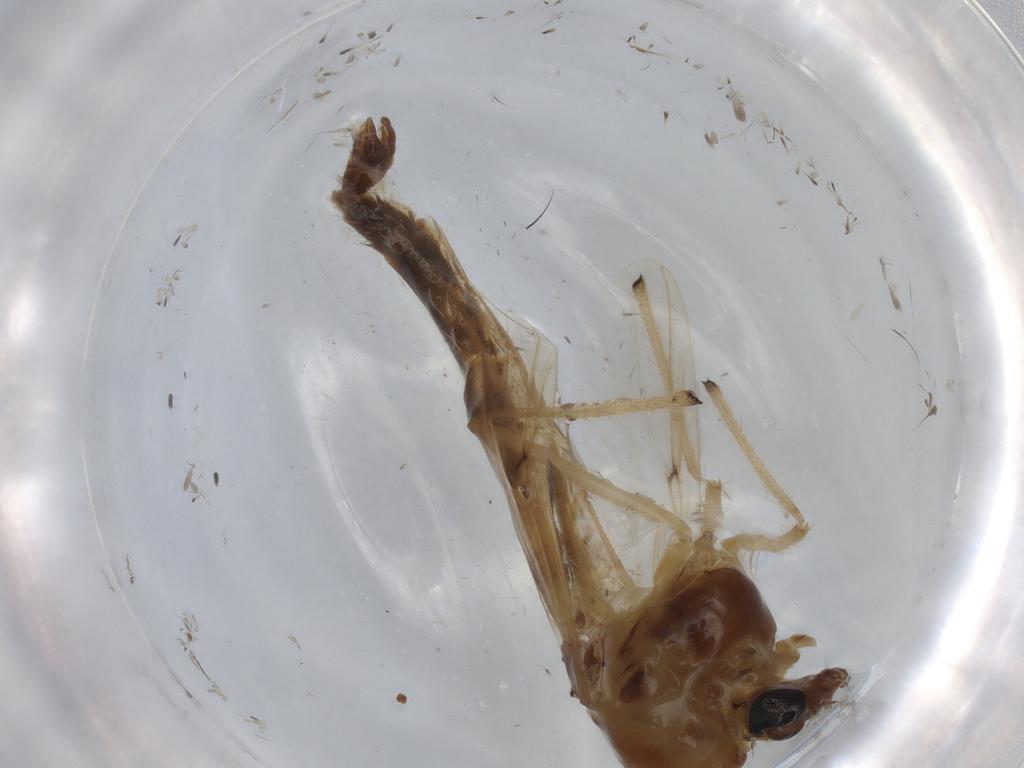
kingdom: Animalia
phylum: Arthropoda
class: Insecta
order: Diptera
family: Chironomidae
